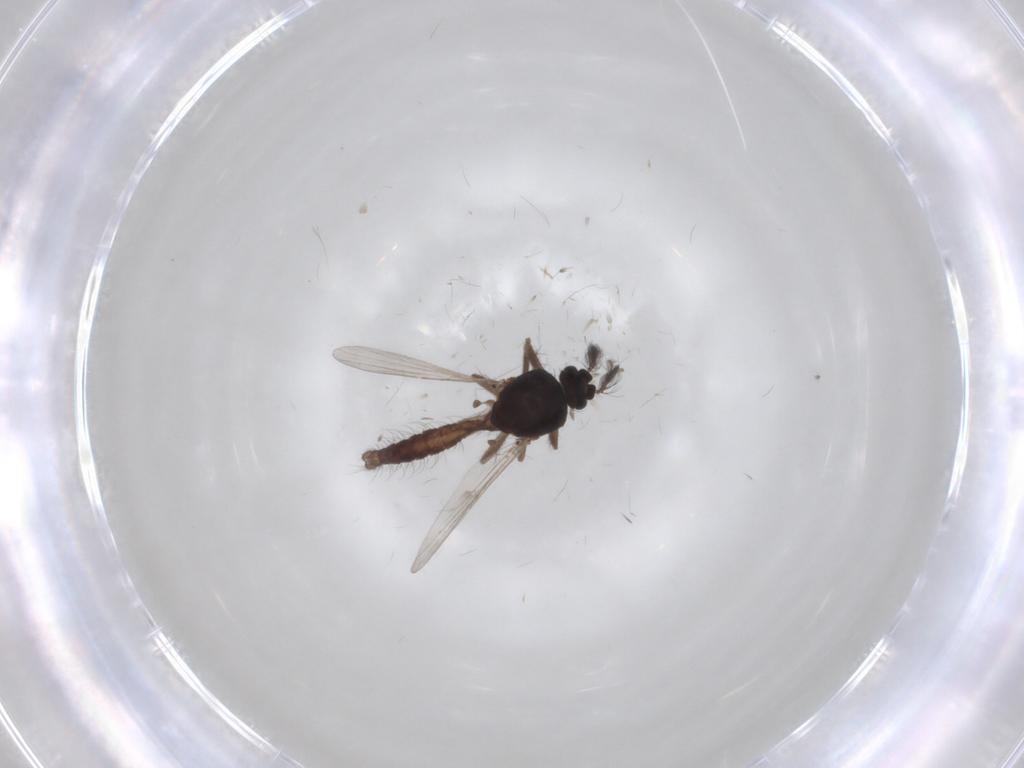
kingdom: Animalia
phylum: Arthropoda
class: Insecta
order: Diptera
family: Ceratopogonidae
